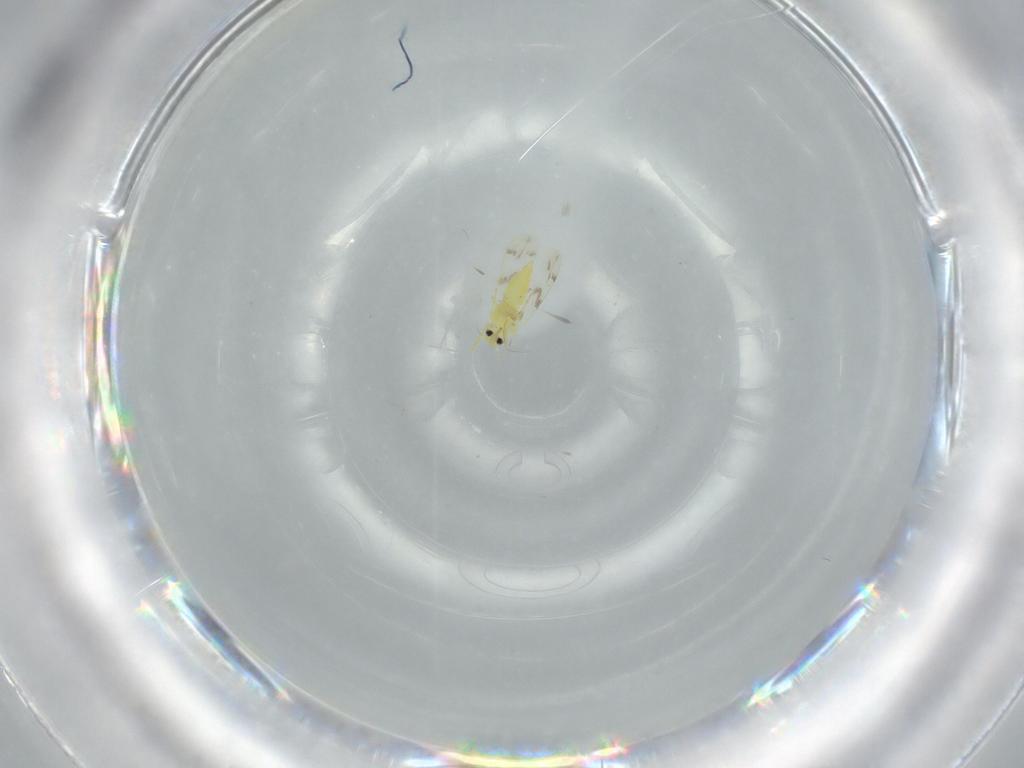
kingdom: Animalia
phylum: Arthropoda
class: Insecta
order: Hemiptera
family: Aleyrodidae
